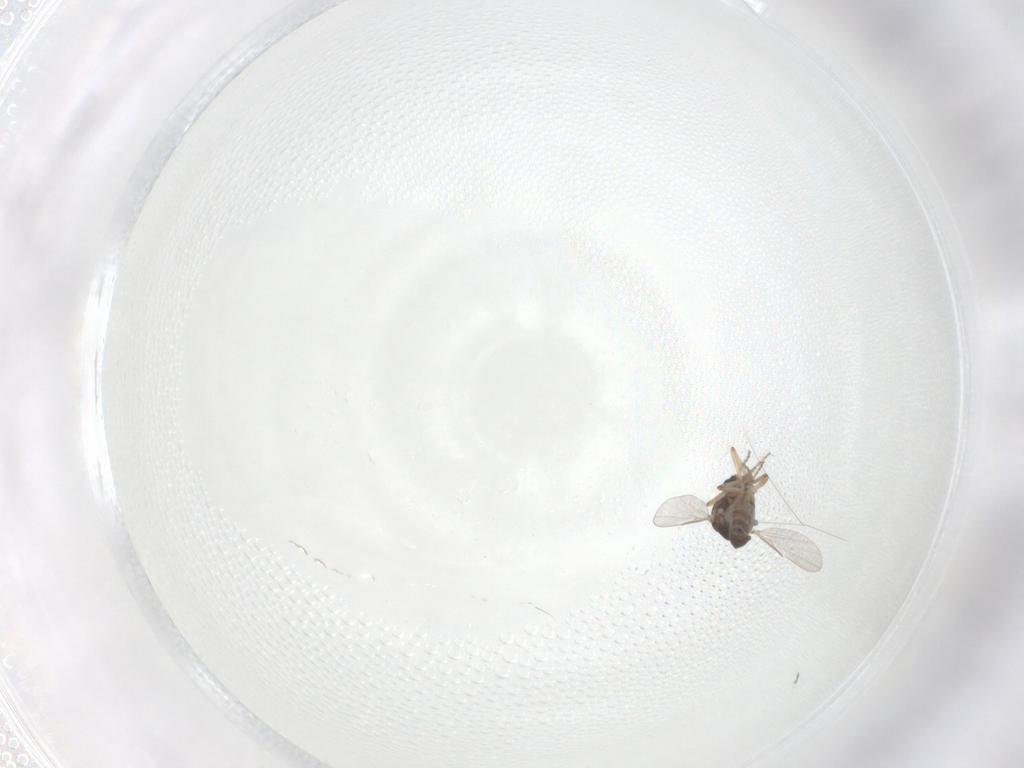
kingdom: Animalia
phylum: Arthropoda
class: Insecta
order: Diptera
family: Ceratopogonidae
